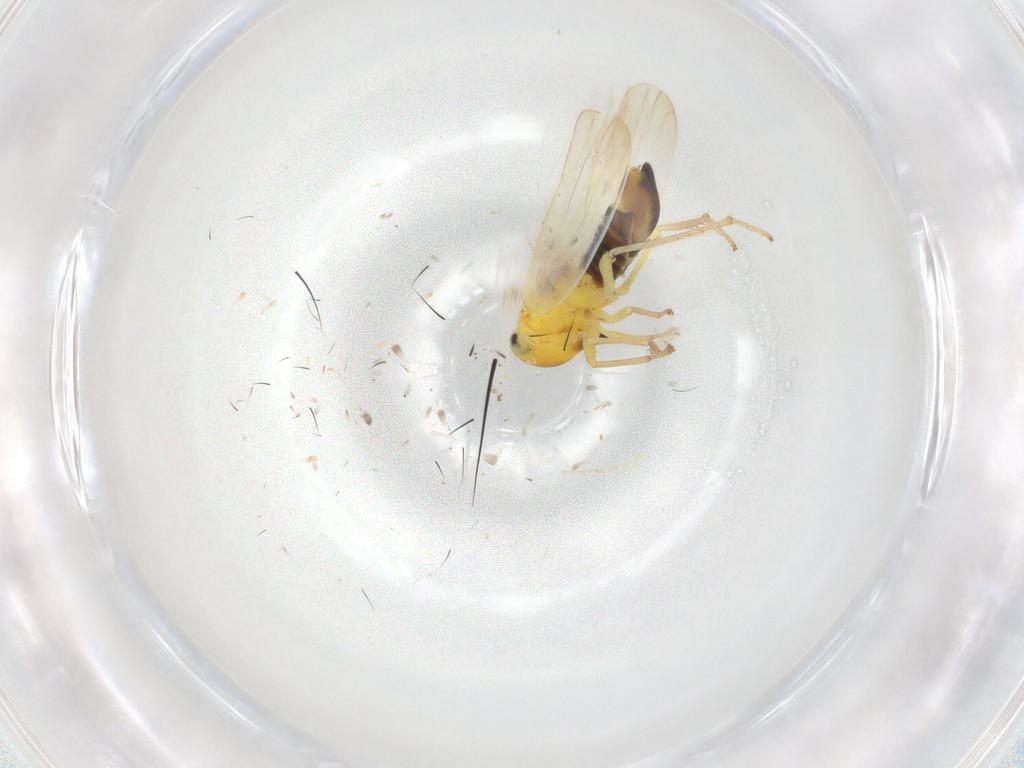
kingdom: Animalia
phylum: Arthropoda
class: Insecta
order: Hemiptera
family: Cicadellidae
